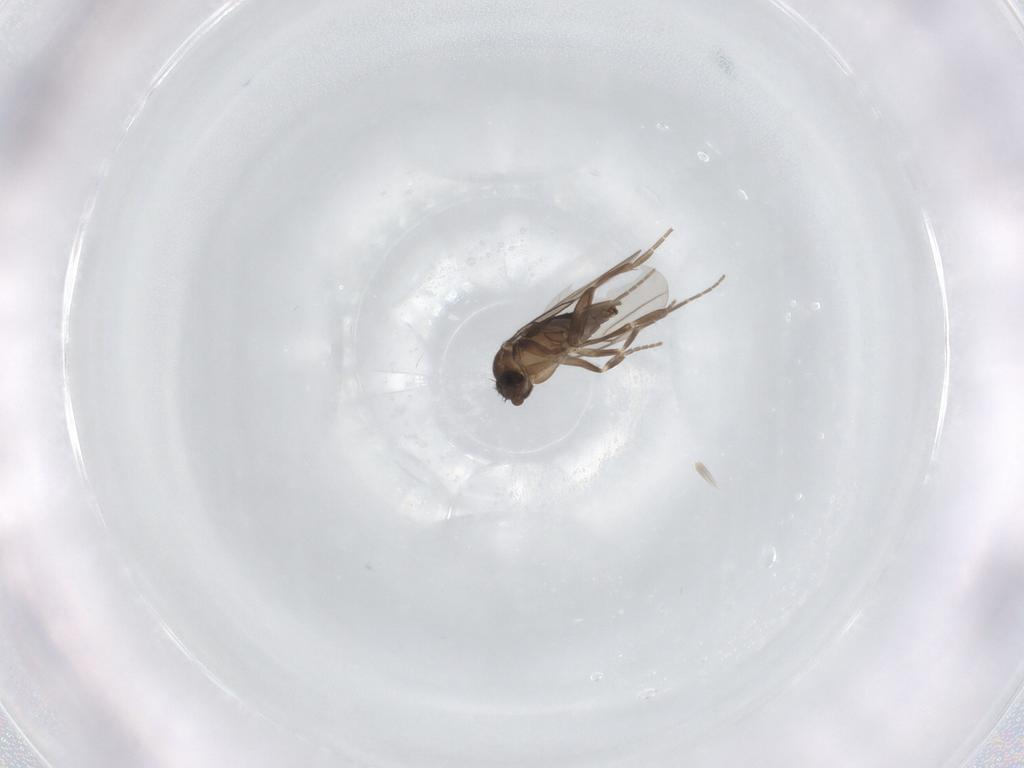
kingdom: Animalia
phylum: Arthropoda
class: Insecta
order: Diptera
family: Phoridae
